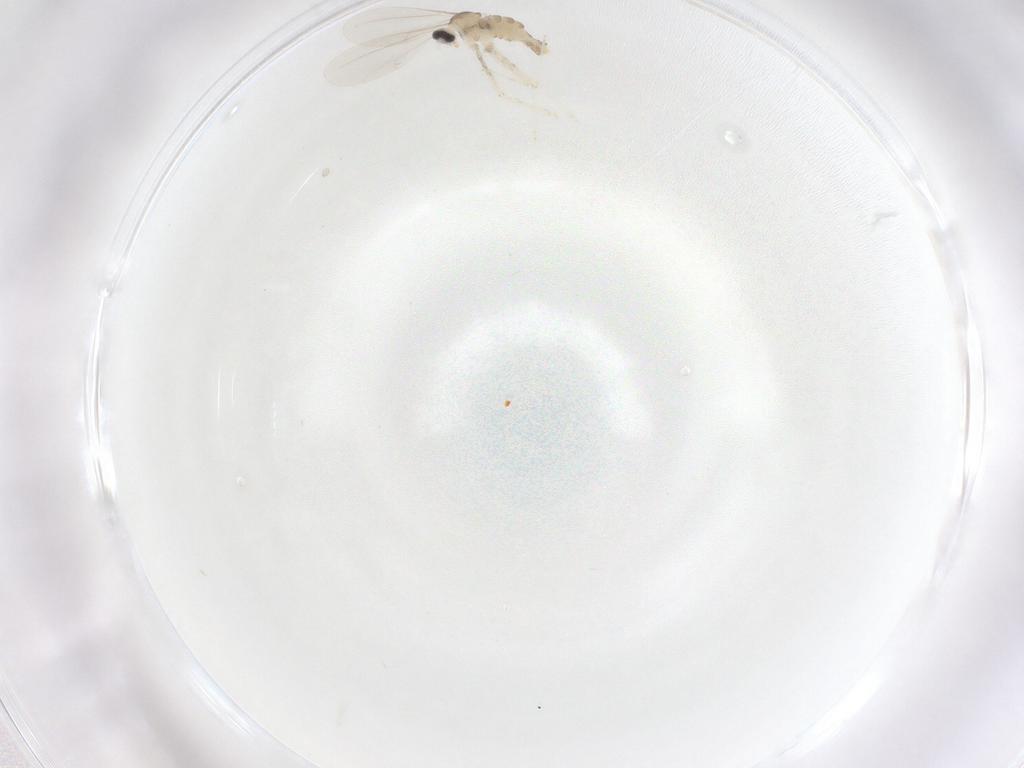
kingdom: Animalia
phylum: Arthropoda
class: Insecta
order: Diptera
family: Cecidomyiidae
